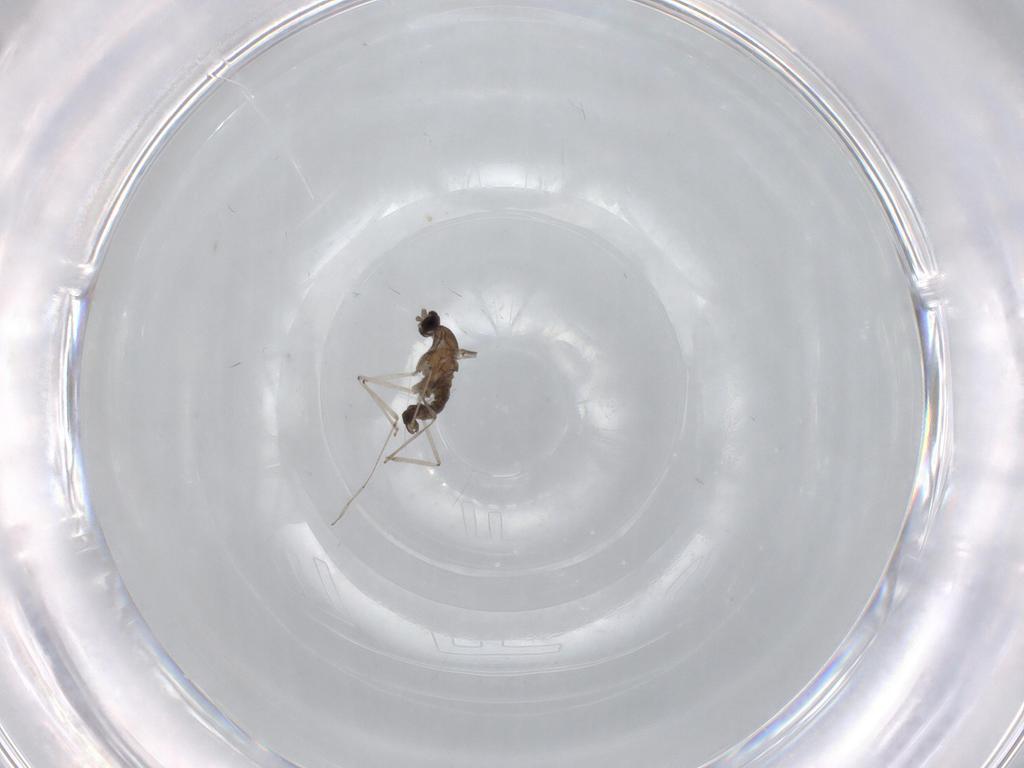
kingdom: Animalia
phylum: Arthropoda
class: Insecta
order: Diptera
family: Cecidomyiidae
